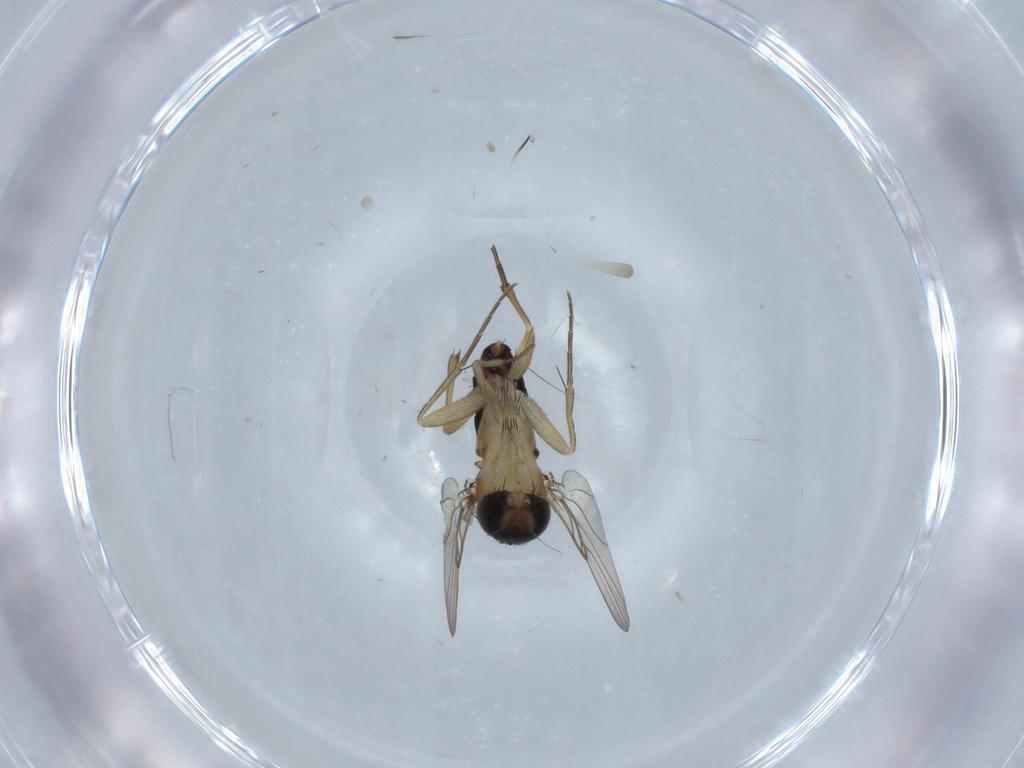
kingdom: Animalia
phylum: Arthropoda
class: Insecta
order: Diptera
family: Phoridae
